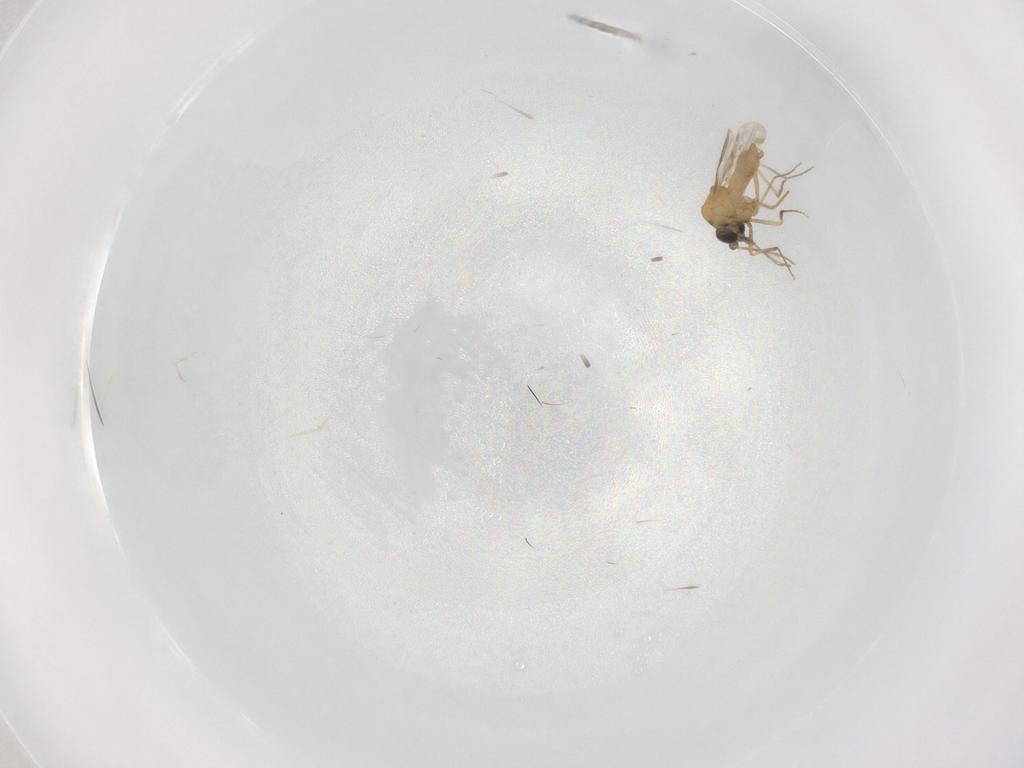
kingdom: Animalia
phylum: Arthropoda
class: Insecta
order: Diptera
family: Ceratopogonidae
